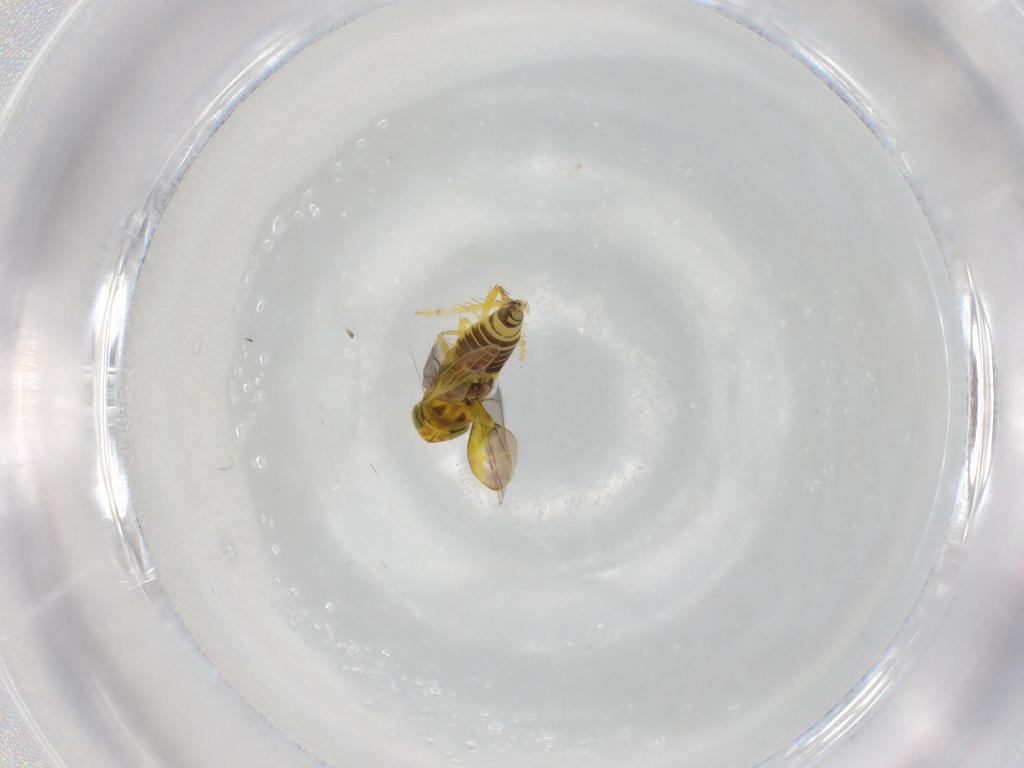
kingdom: Animalia
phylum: Arthropoda
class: Insecta
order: Hemiptera
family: Cicadellidae
